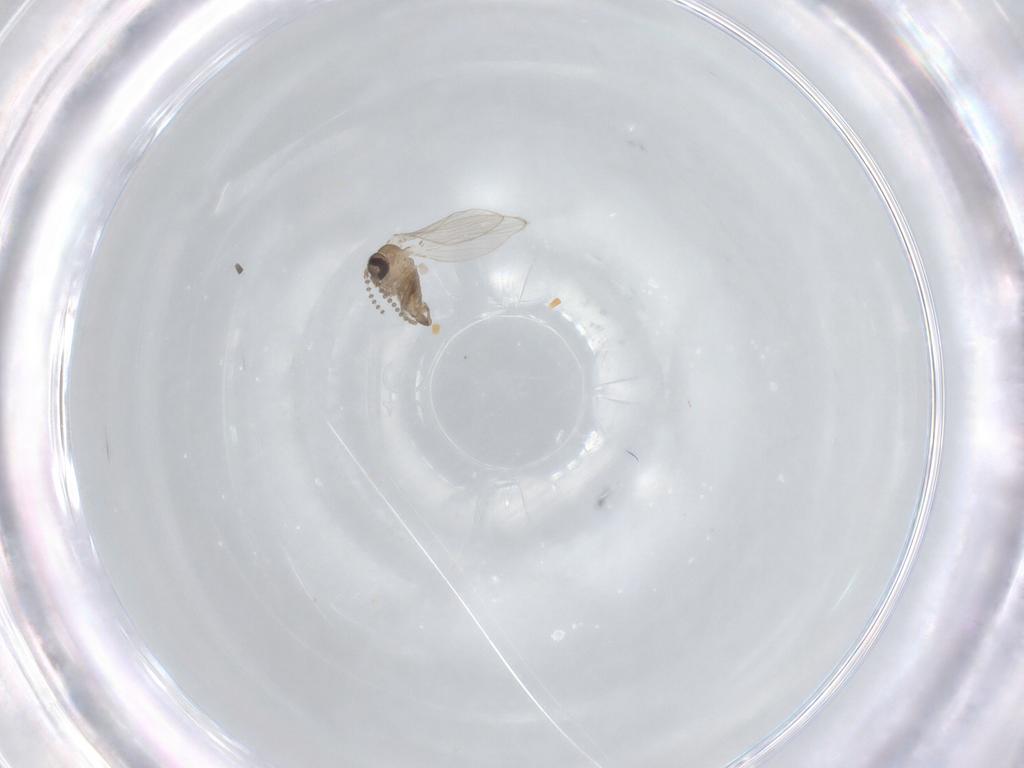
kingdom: Animalia
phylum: Arthropoda
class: Insecta
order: Diptera
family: Psychodidae
